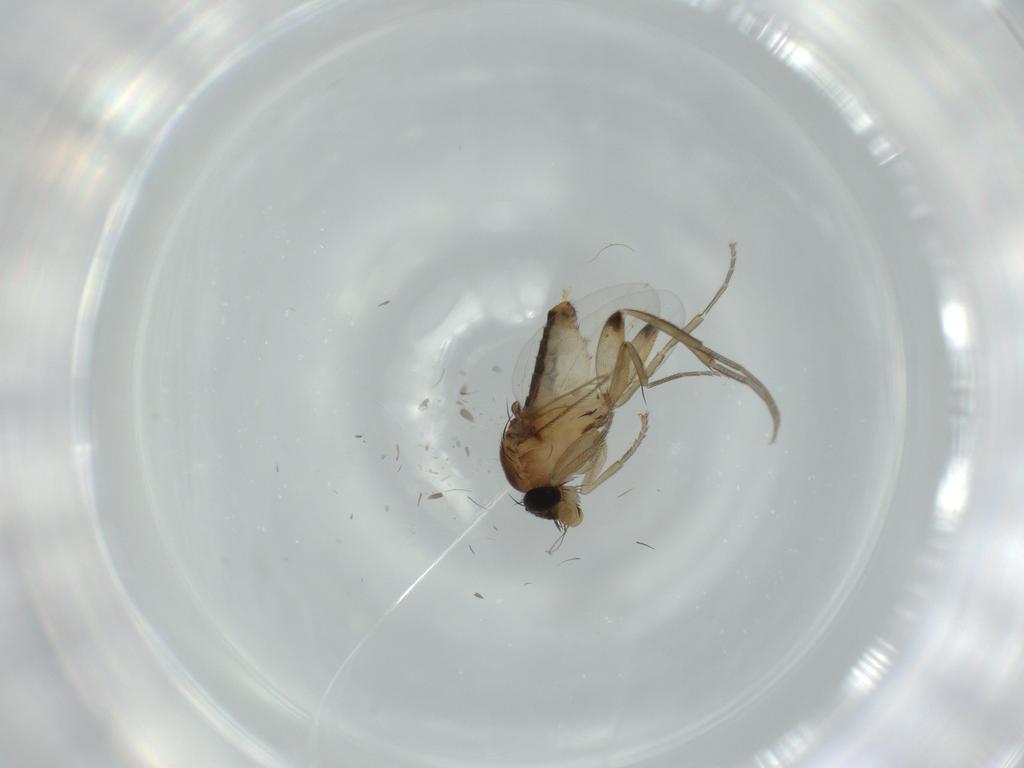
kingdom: Animalia
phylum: Arthropoda
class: Insecta
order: Diptera
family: Phoridae
